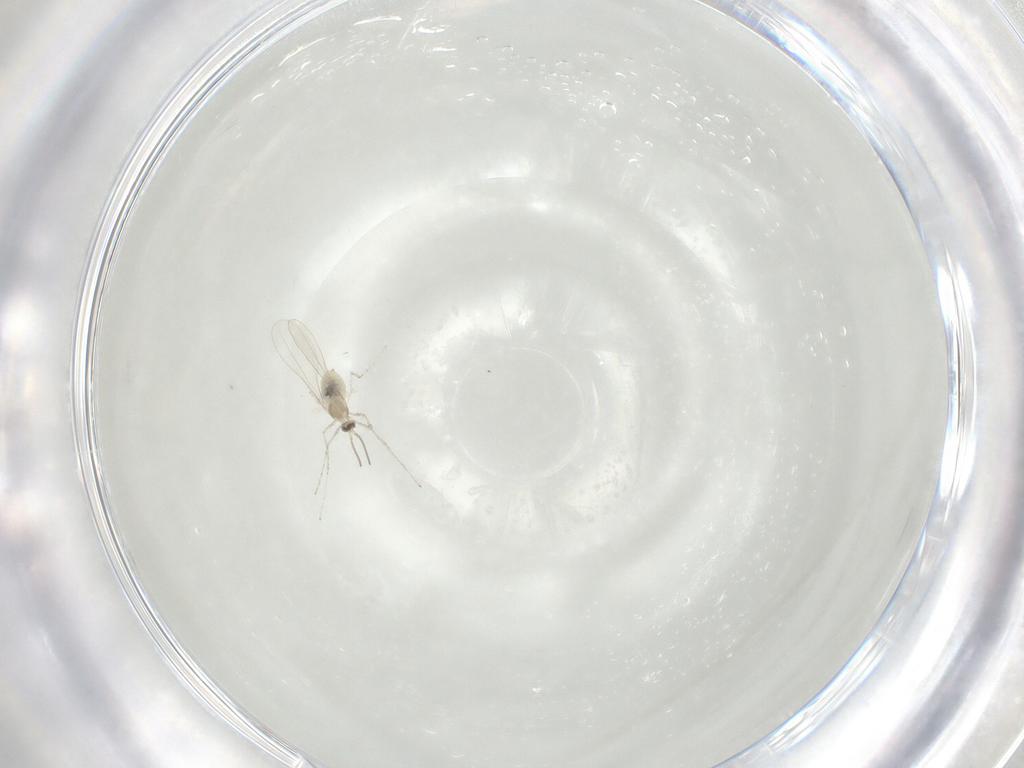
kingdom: Animalia
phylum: Arthropoda
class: Insecta
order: Diptera
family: Cecidomyiidae
